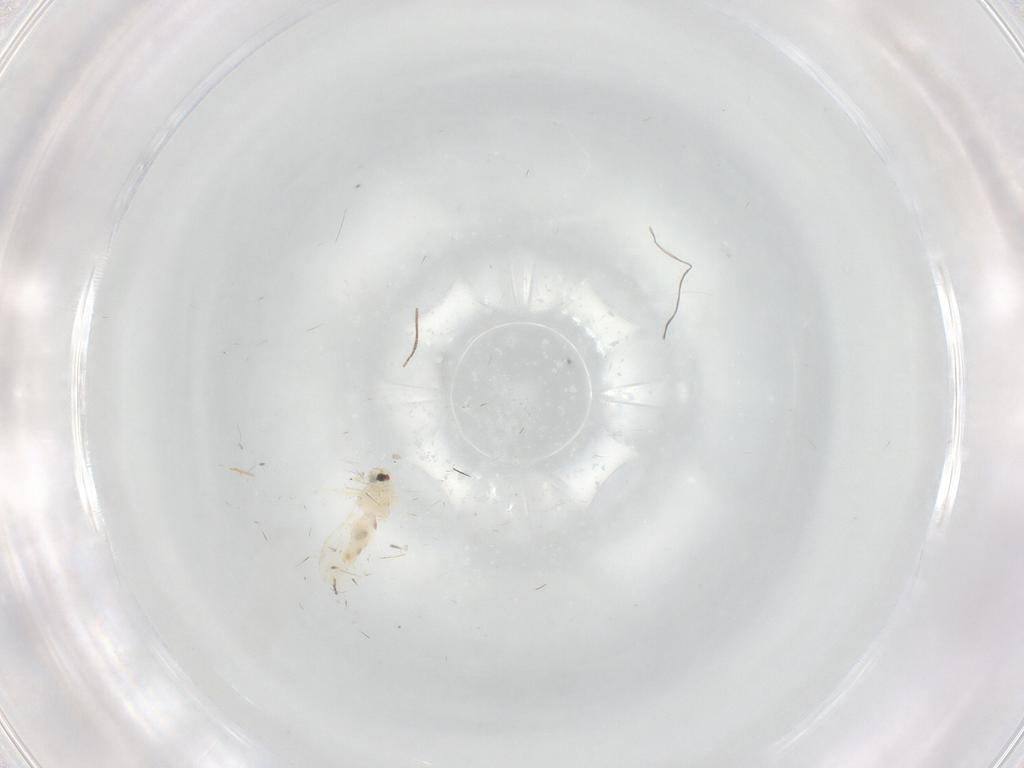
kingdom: Animalia
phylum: Arthropoda
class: Insecta
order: Hemiptera
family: Aleyrodidae
